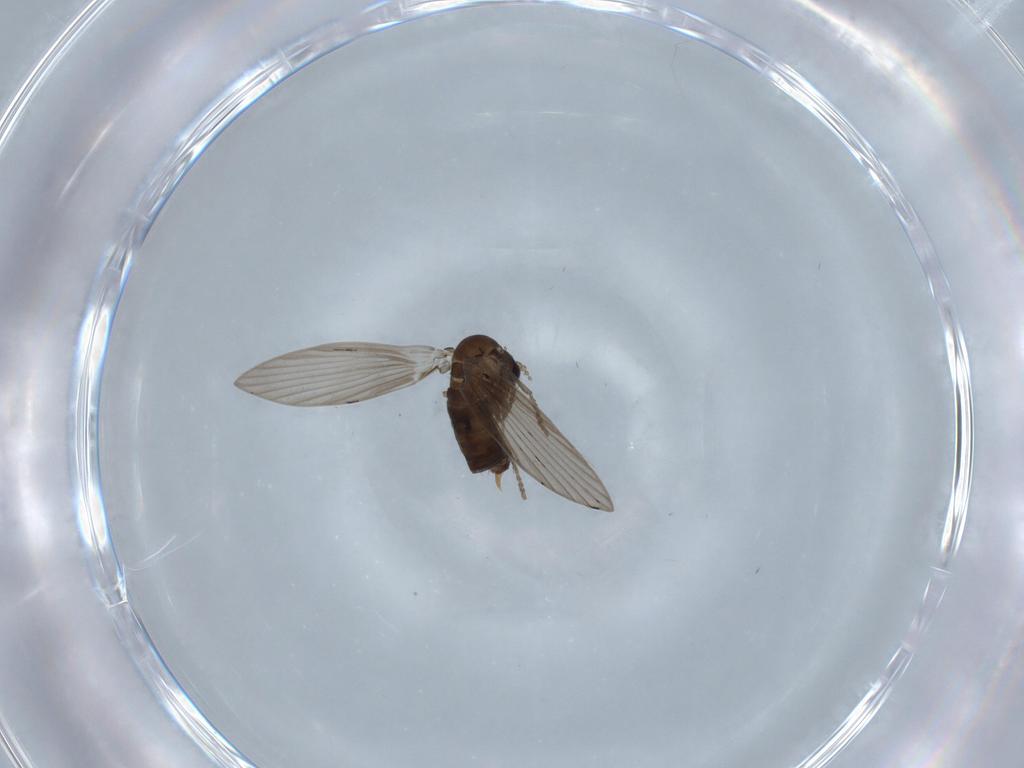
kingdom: Animalia
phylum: Arthropoda
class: Insecta
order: Diptera
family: Psychodidae
